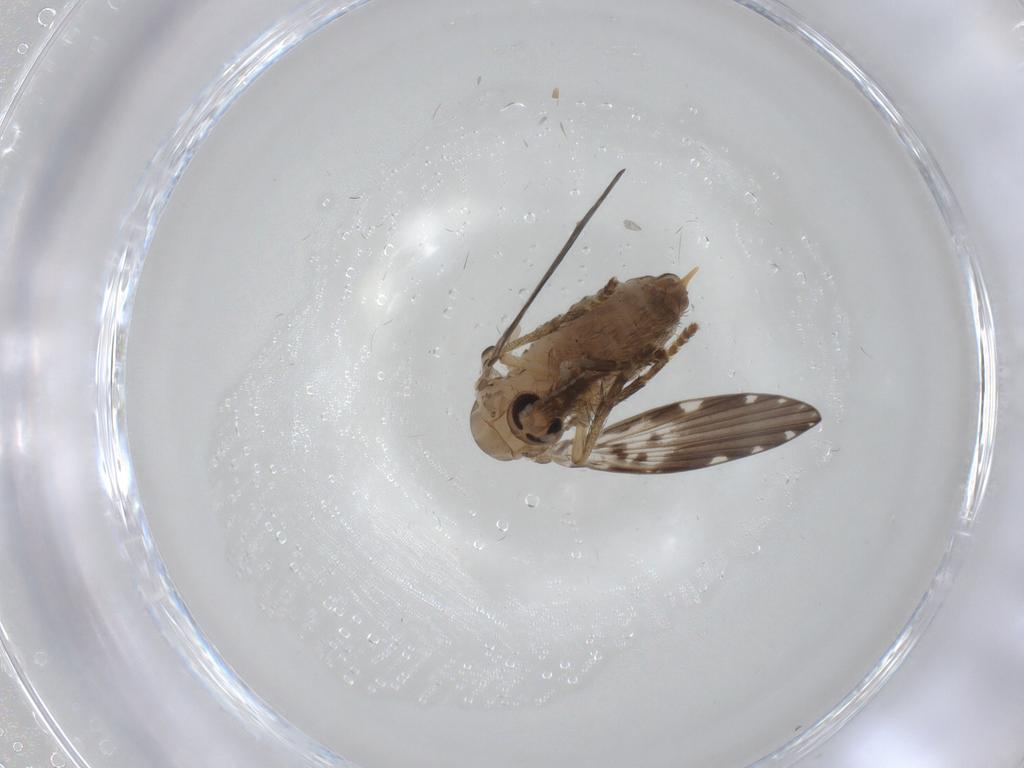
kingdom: Animalia
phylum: Arthropoda
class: Insecta
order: Diptera
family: Psychodidae
